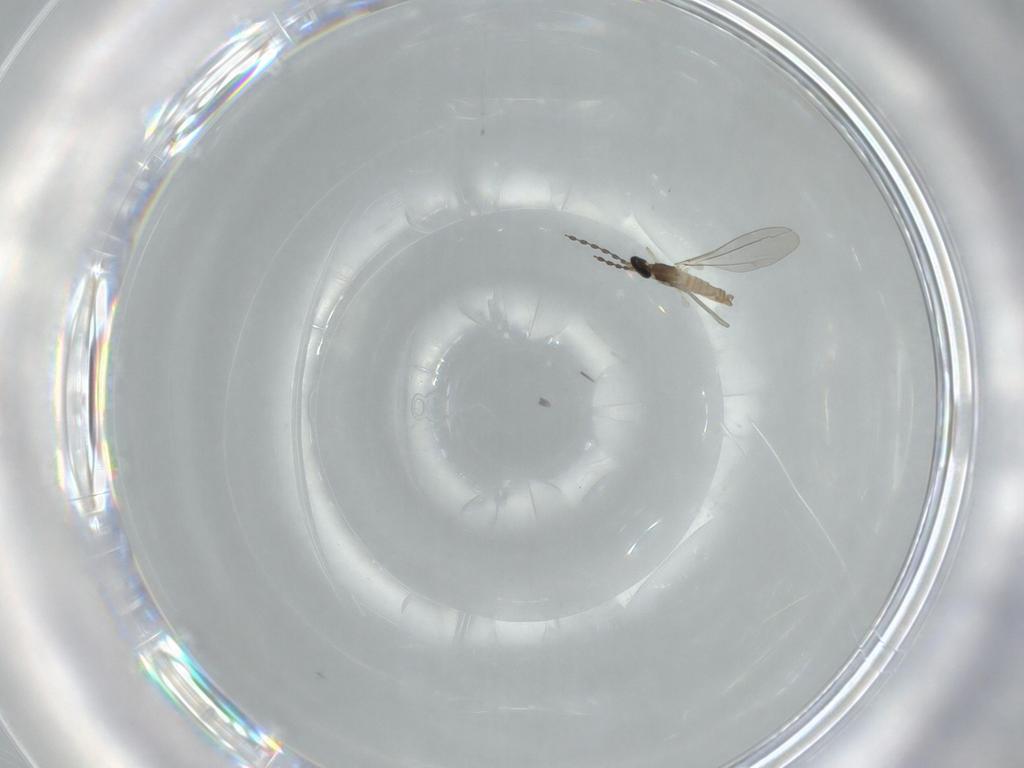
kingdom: Animalia
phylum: Arthropoda
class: Insecta
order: Diptera
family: Cecidomyiidae
